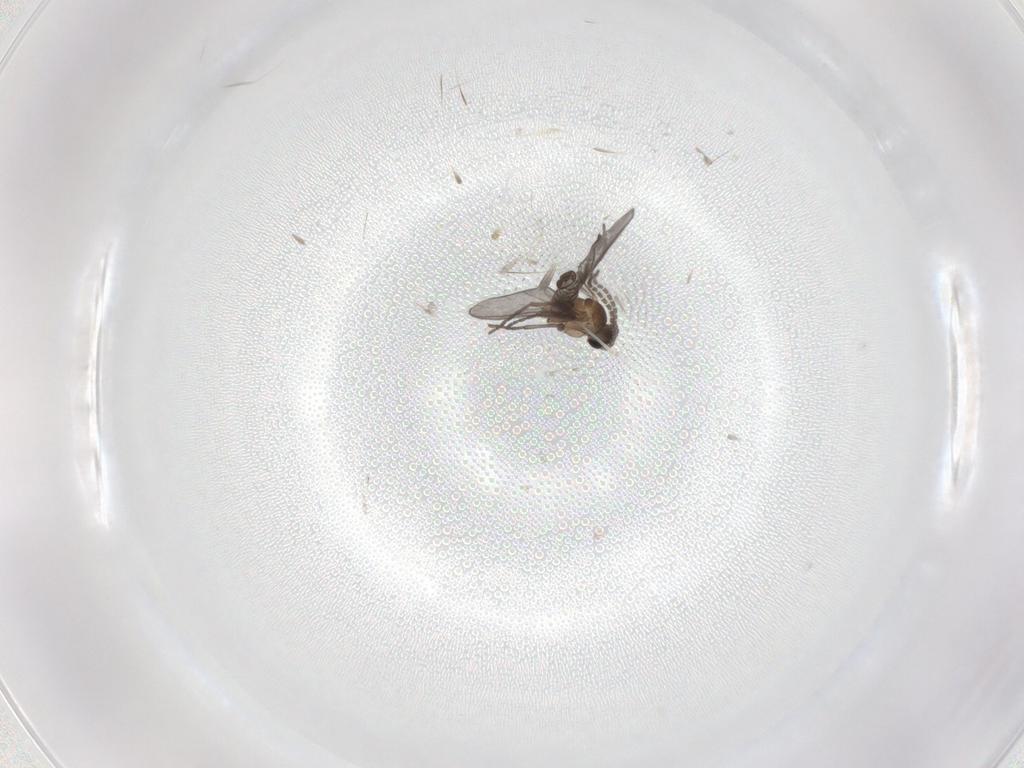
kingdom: Animalia
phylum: Arthropoda
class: Insecta
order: Diptera
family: Sciaridae
